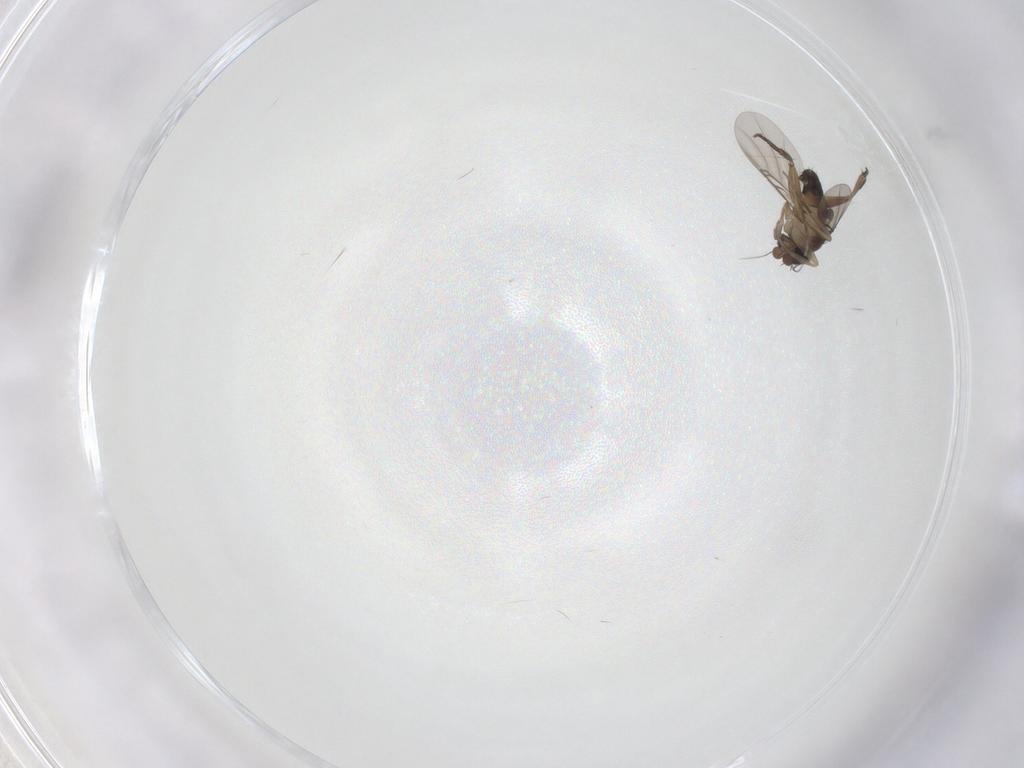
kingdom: Animalia
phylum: Arthropoda
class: Insecta
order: Diptera
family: Phoridae
